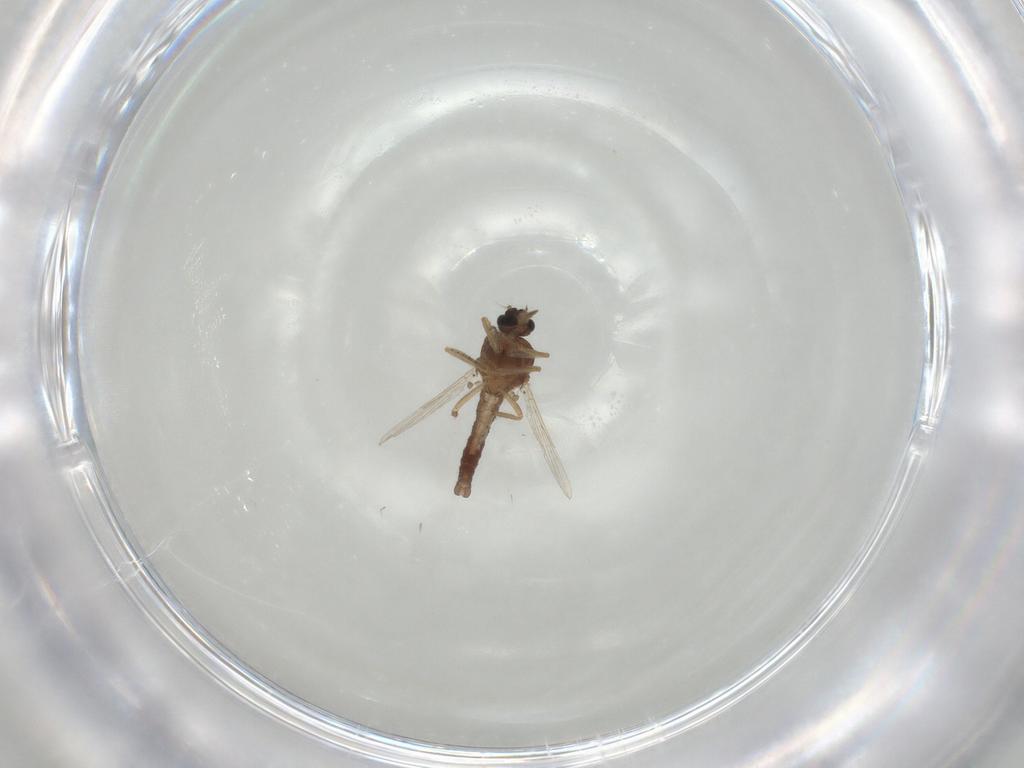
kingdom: Animalia
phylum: Arthropoda
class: Insecta
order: Diptera
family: Ceratopogonidae
